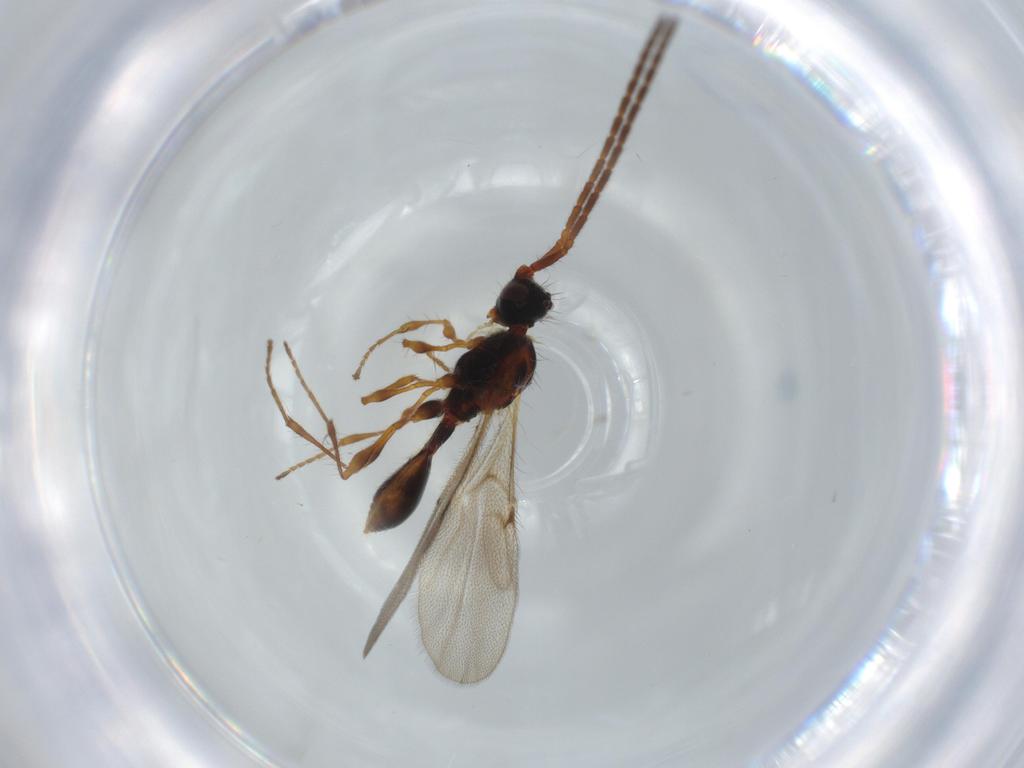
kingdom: Animalia
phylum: Arthropoda
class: Insecta
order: Hymenoptera
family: Diapriidae
